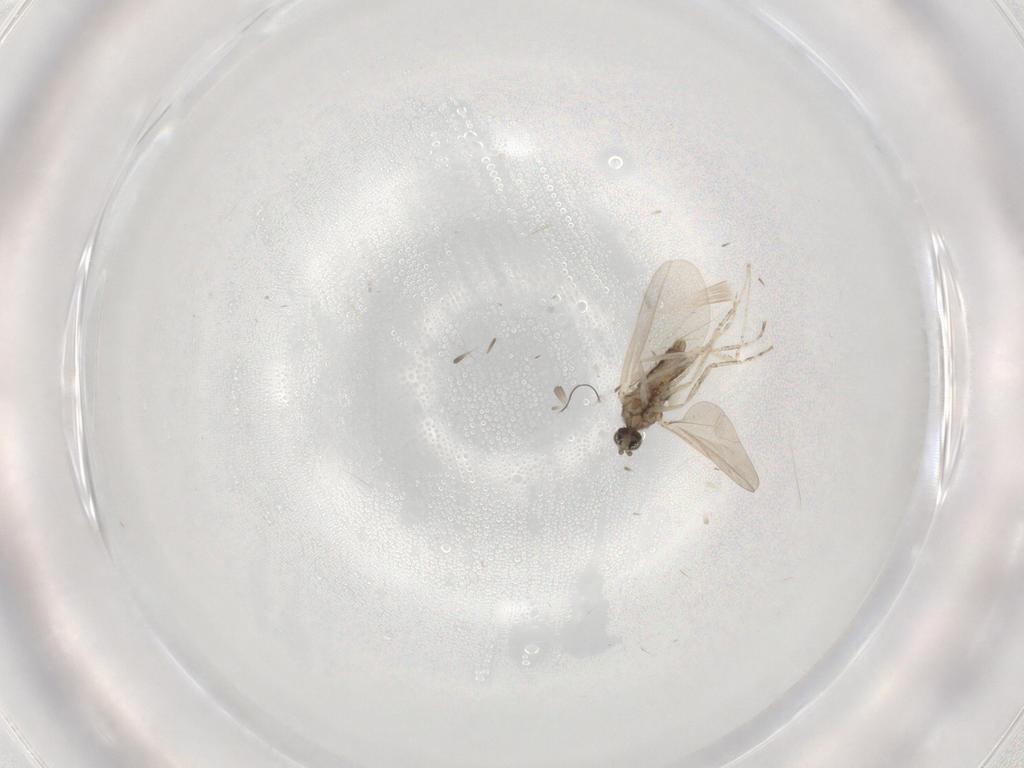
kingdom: Animalia
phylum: Arthropoda
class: Insecta
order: Diptera
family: Cecidomyiidae
